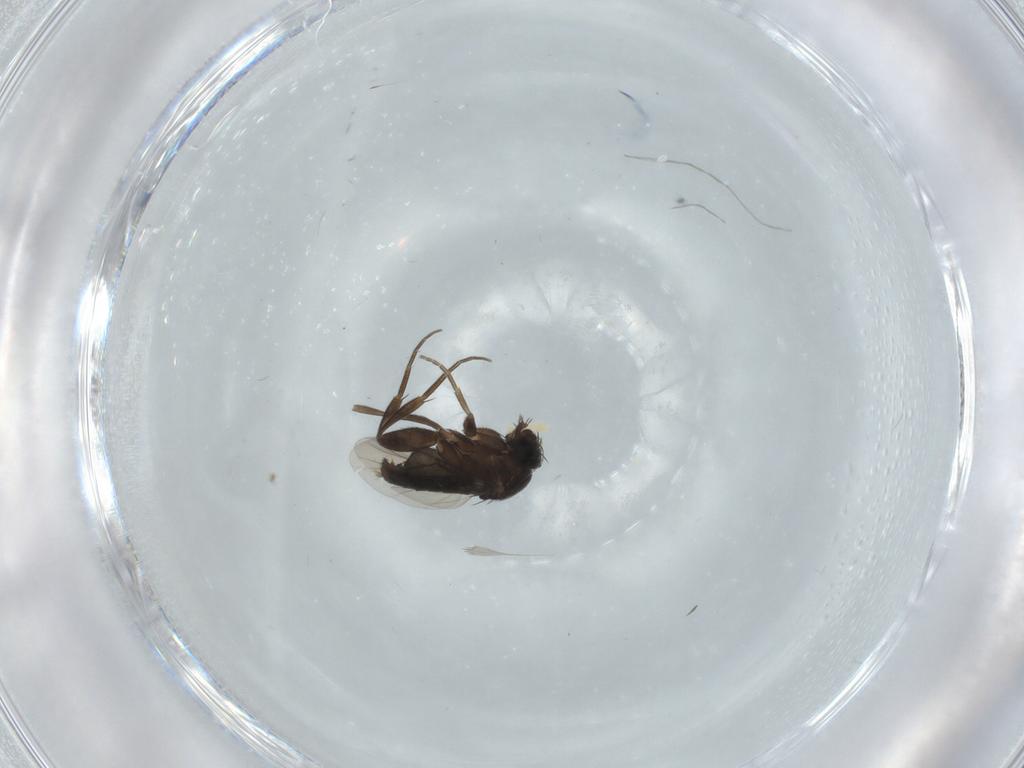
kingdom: Animalia
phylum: Arthropoda
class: Insecta
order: Diptera
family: Phoridae
